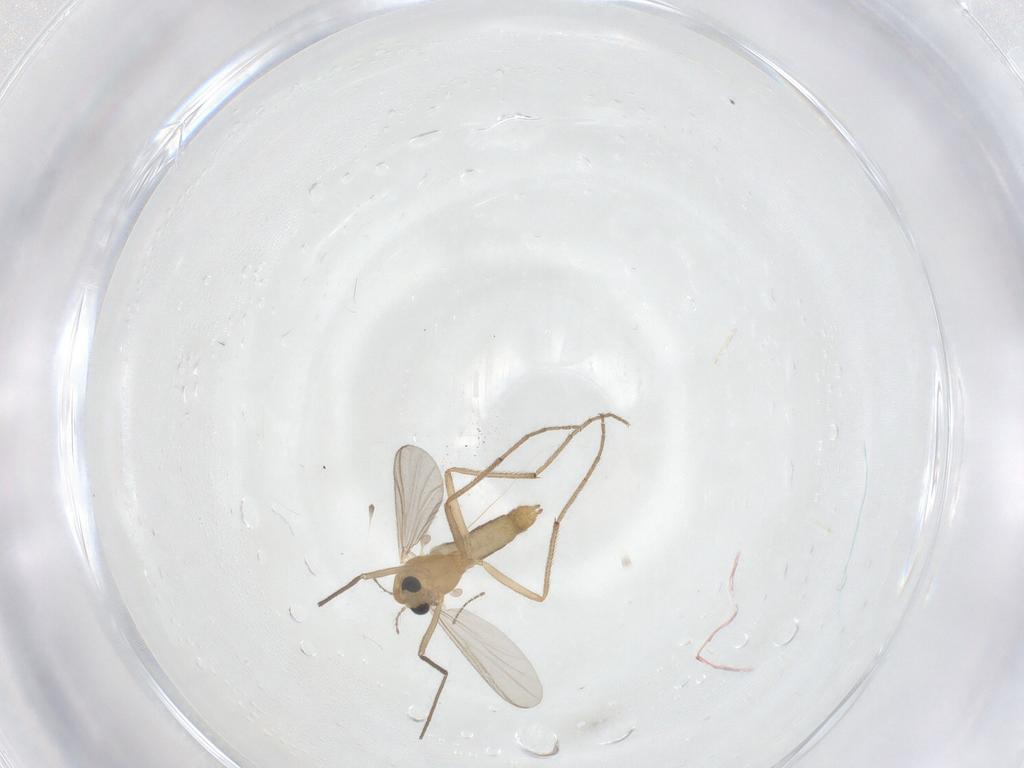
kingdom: Animalia
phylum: Arthropoda
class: Insecta
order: Diptera
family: Chironomidae
